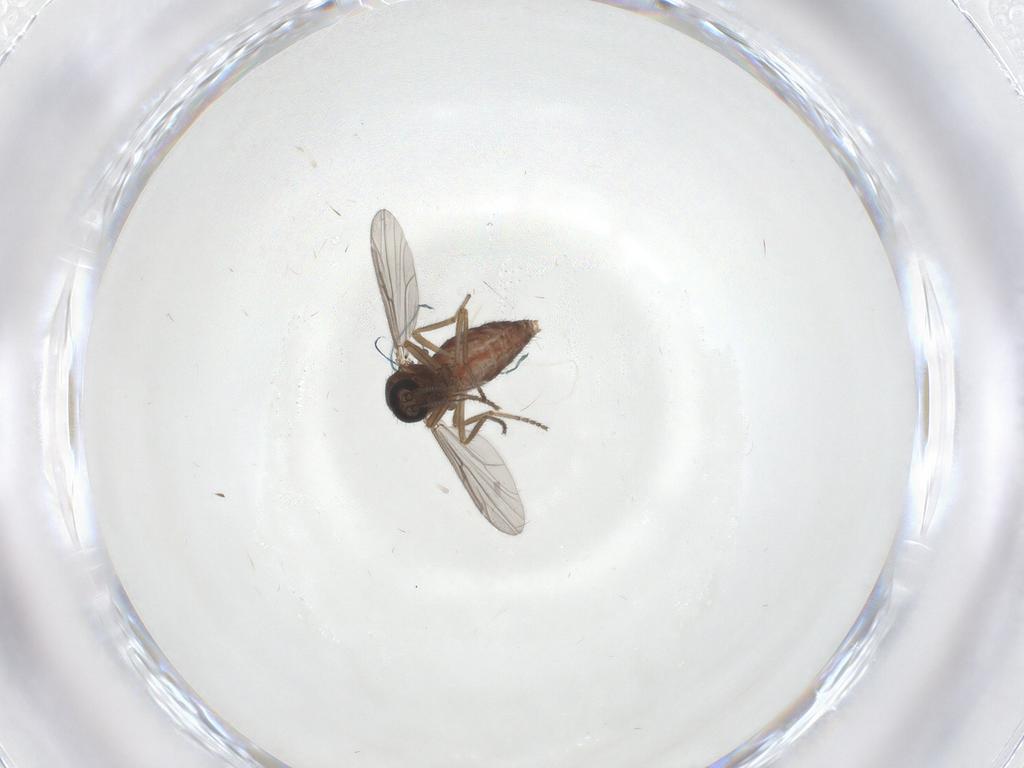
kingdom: Animalia
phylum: Arthropoda
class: Insecta
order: Diptera
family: Ceratopogonidae
